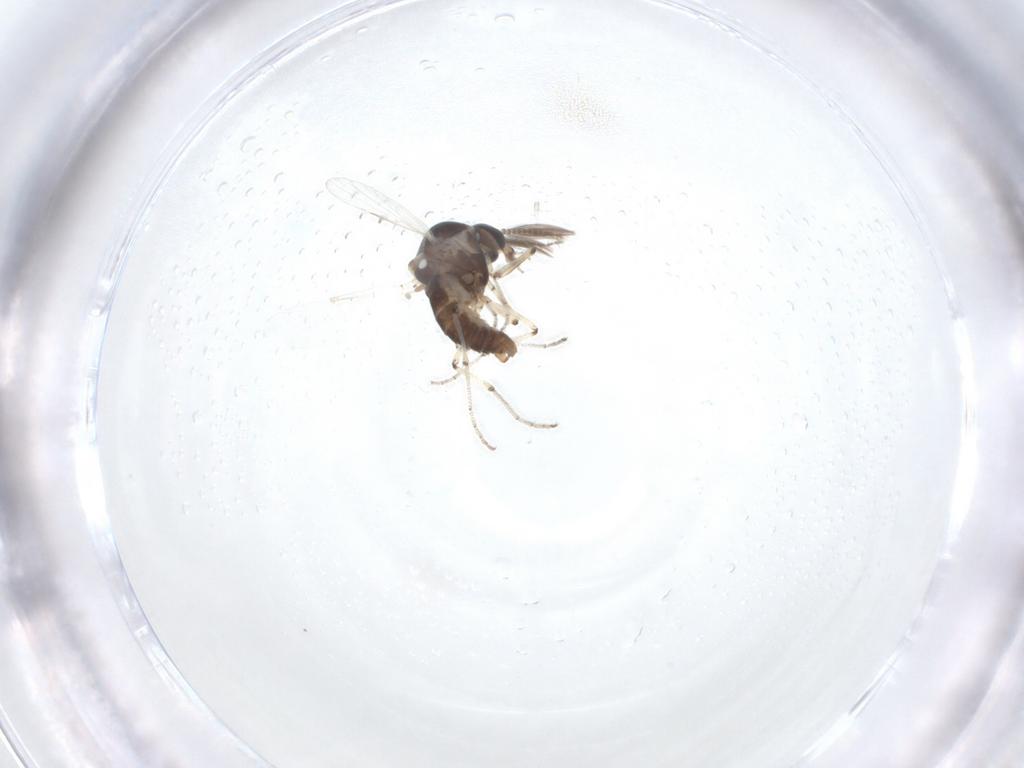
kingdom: Animalia
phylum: Arthropoda
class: Insecta
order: Diptera
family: Ceratopogonidae
